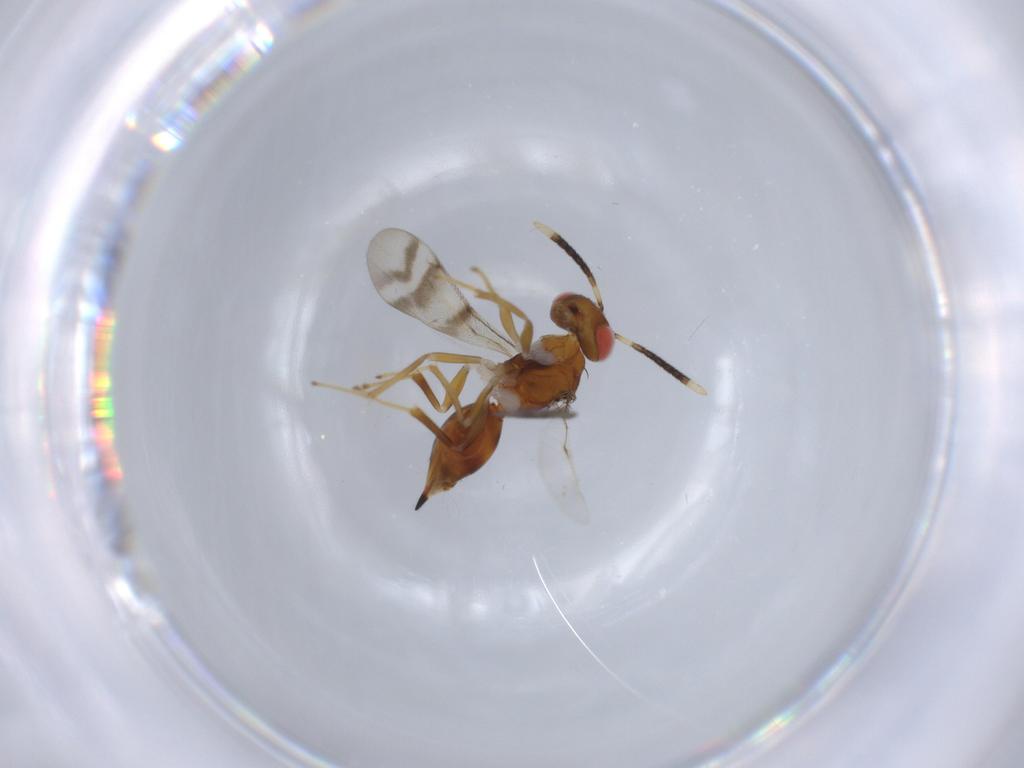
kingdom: Animalia
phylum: Arthropoda
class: Insecta
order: Hymenoptera
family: Diparidae
